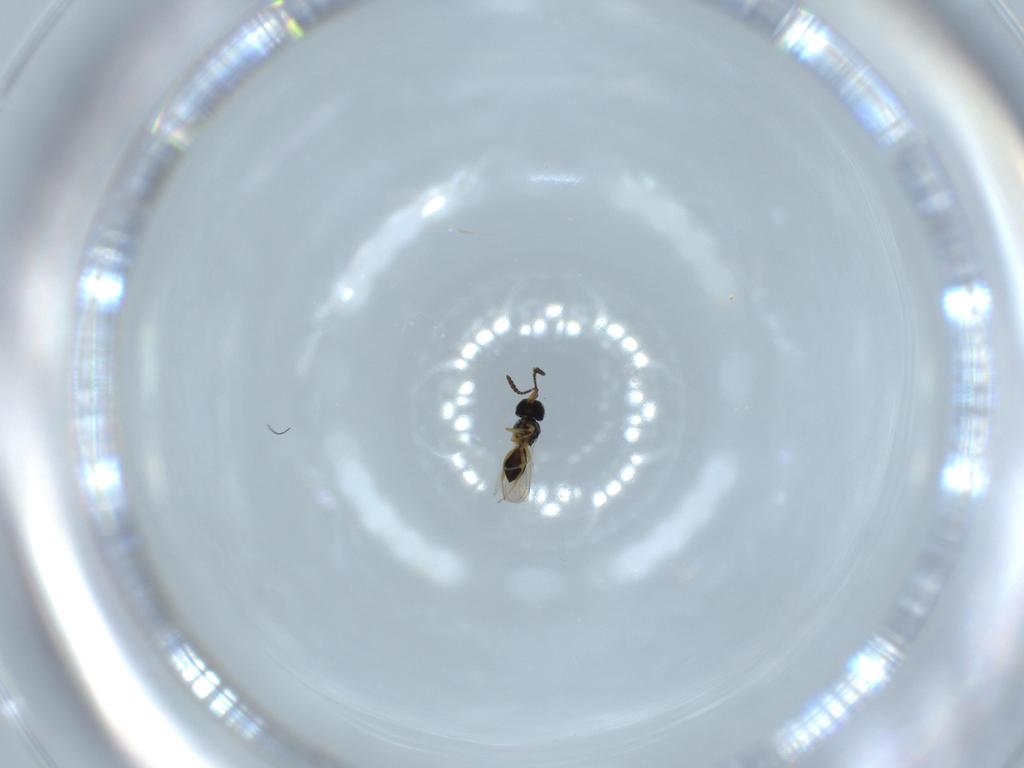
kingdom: Animalia
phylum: Arthropoda
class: Insecta
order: Hymenoptera
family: Scelionidae
